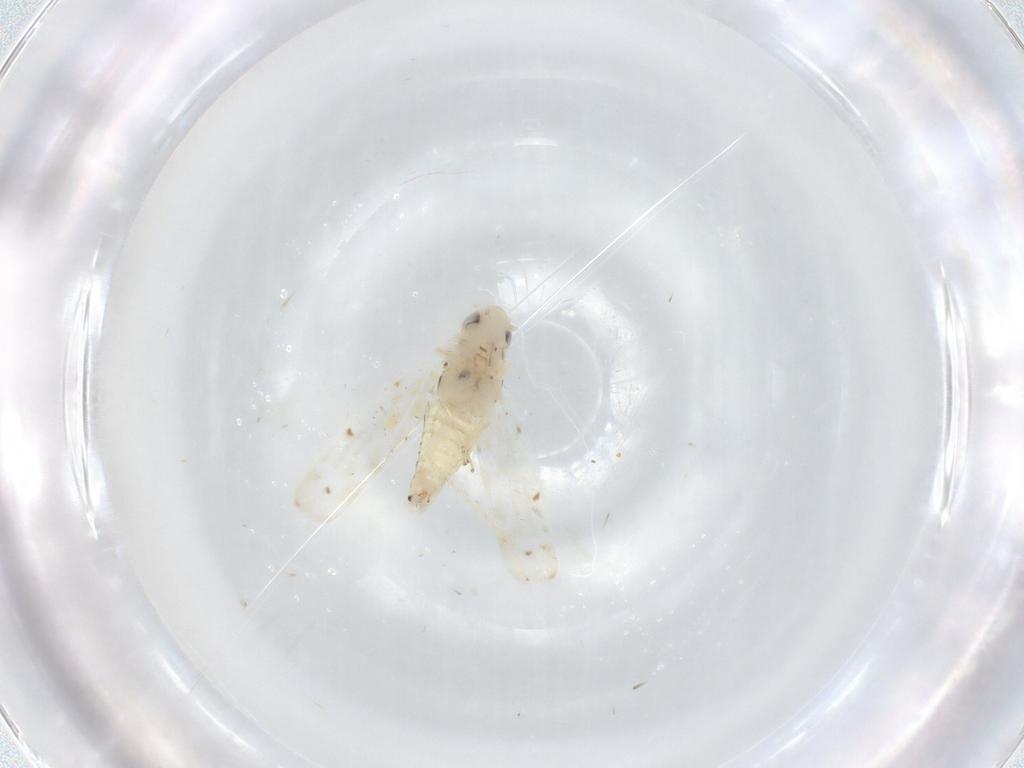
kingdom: Animalia
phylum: Arthropoda
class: Insecta
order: Hemiptera
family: Cicadellidae
